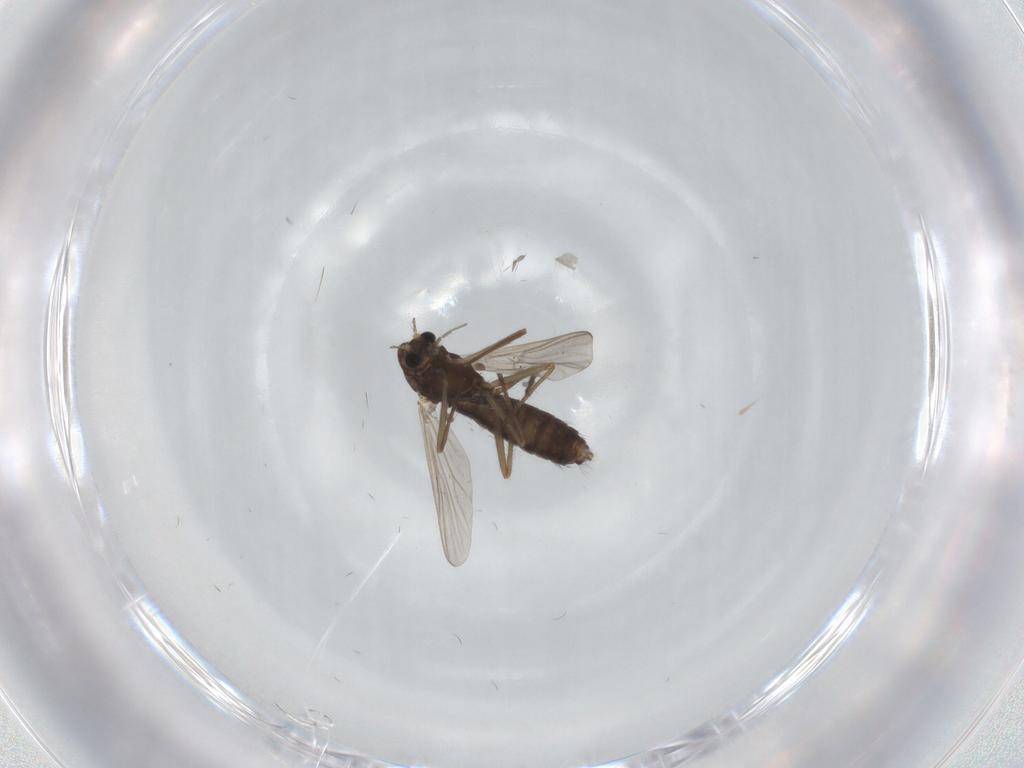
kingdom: Animalia
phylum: Arthropoda
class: Insecta
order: Diptera
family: Chironomidae
